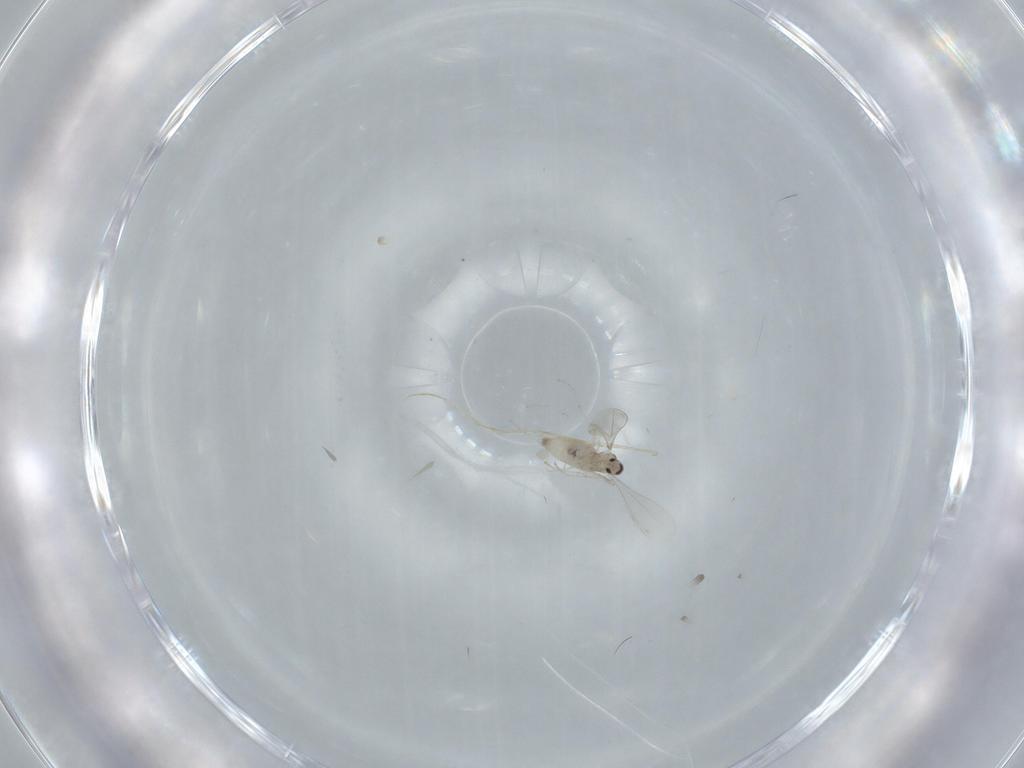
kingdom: Animalia
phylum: Arthropoda
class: Insecta
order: Diptera
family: Cecidomyiidae
